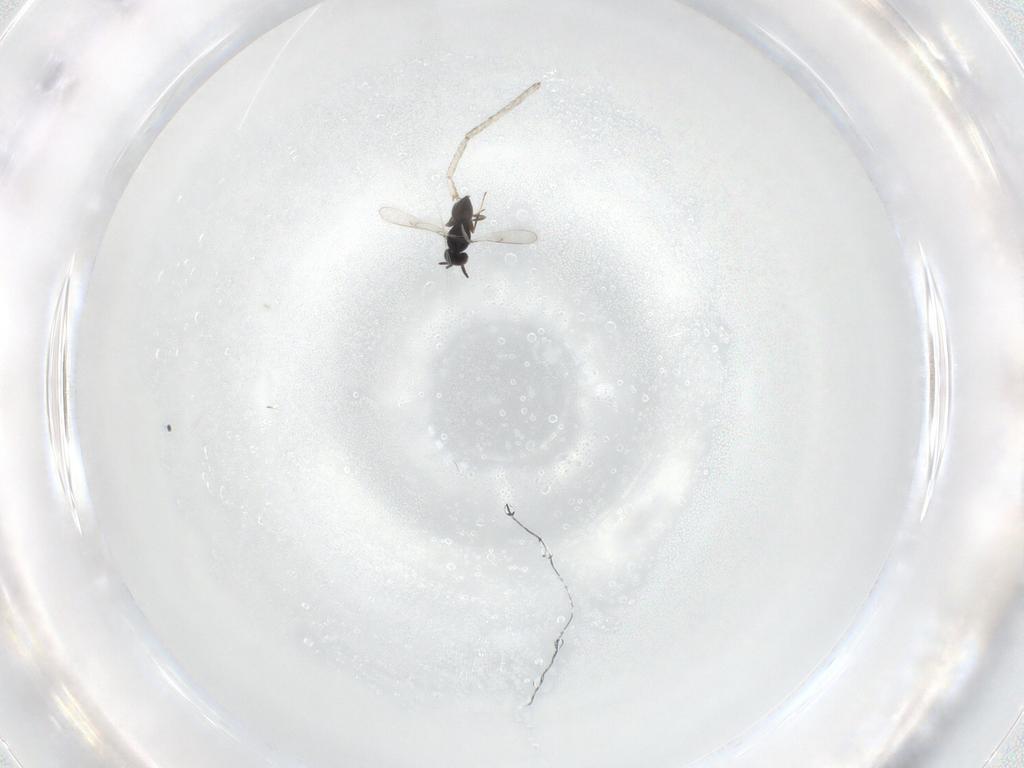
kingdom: Animalia
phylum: Arthropoda
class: Insecta
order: Hymenoptera
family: Scelionidae
